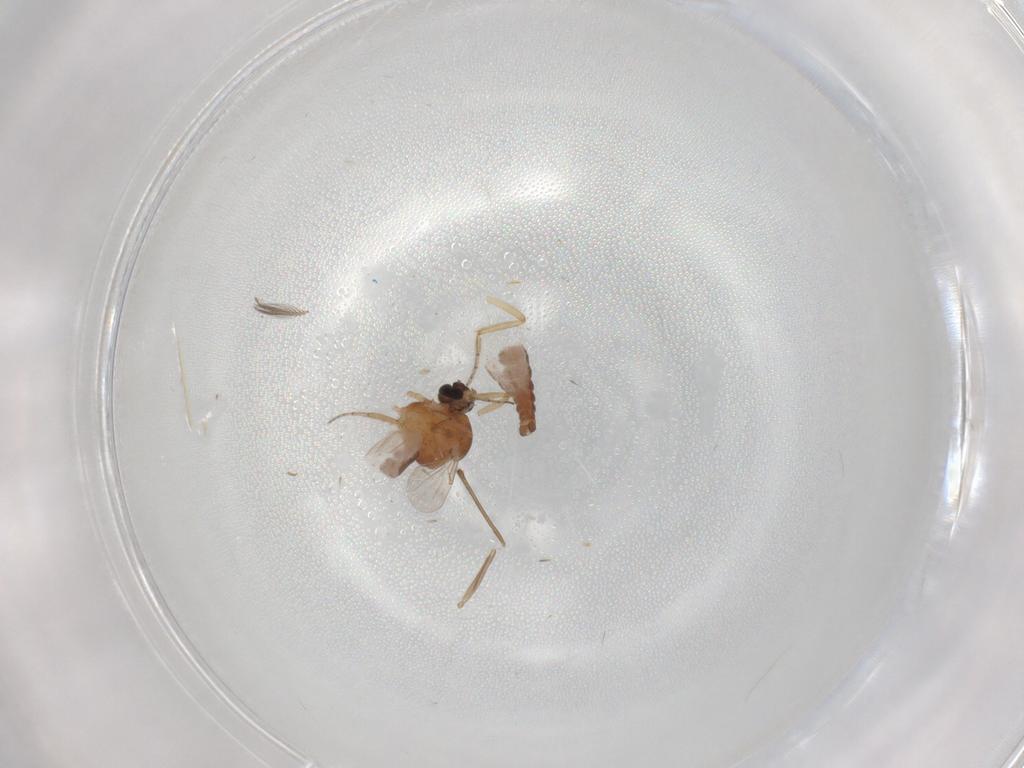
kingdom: Animalia
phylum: Arthropoda
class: Insecta
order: Diptera
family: Ceratopogonidae
